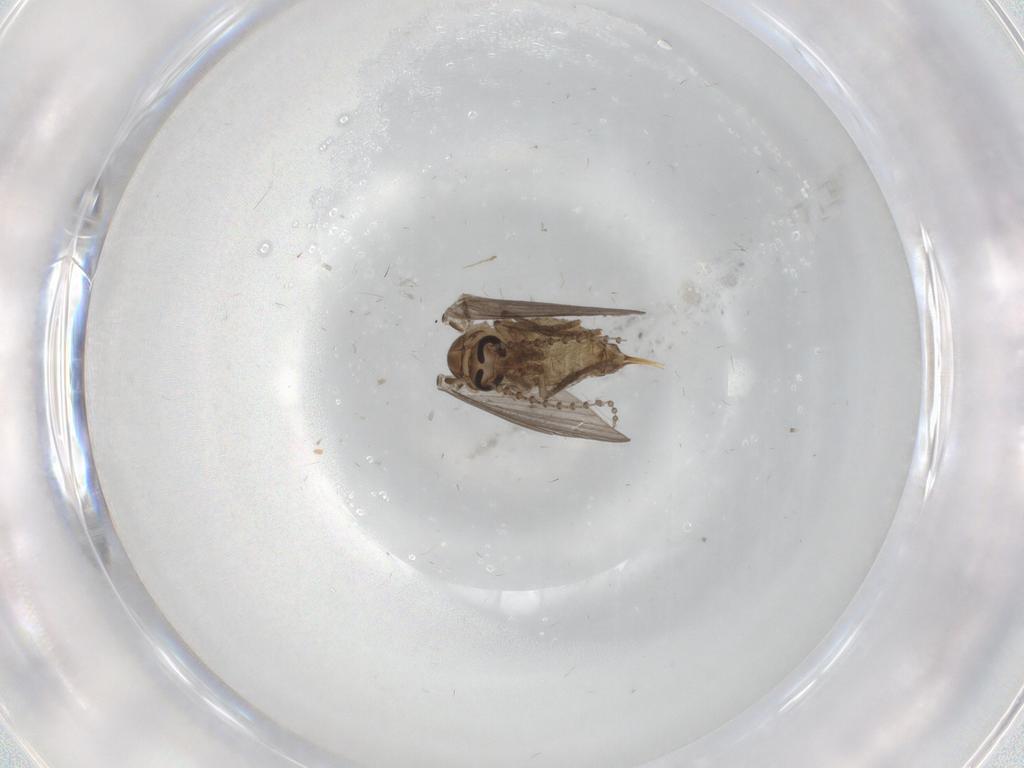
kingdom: Animalia
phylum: Arthropoda
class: Insecta
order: Diptera
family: Psychodidae
